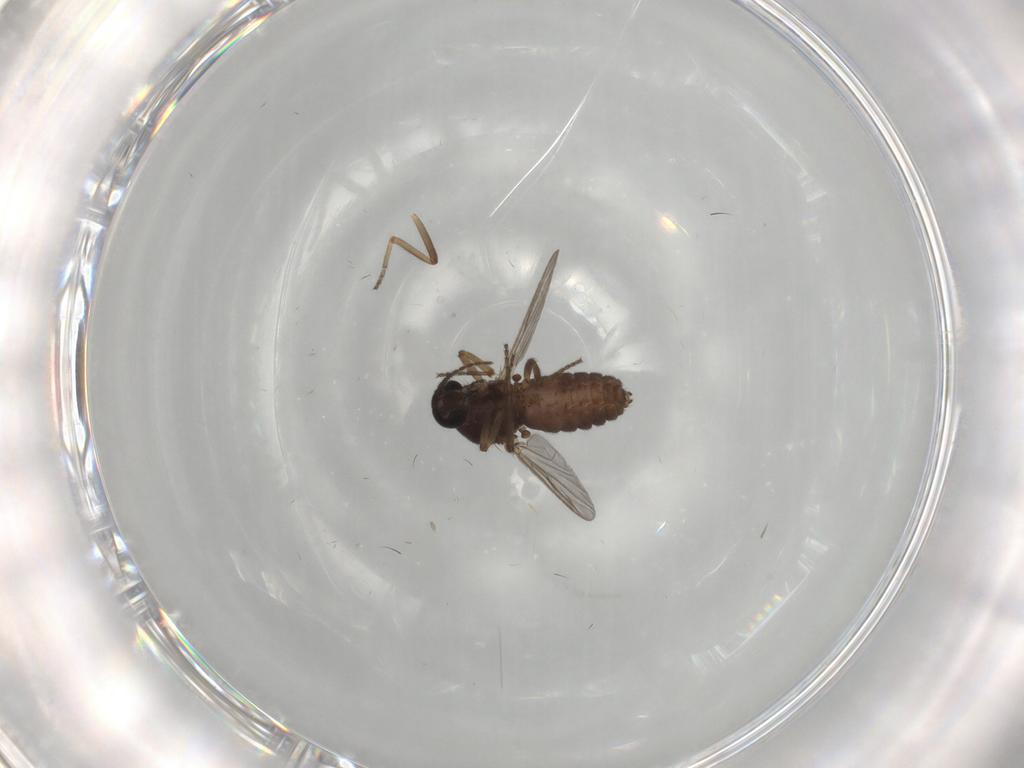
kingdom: Animalia
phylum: Arthropoda
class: Insecta
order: Diptera
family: Ceratopogonidae
